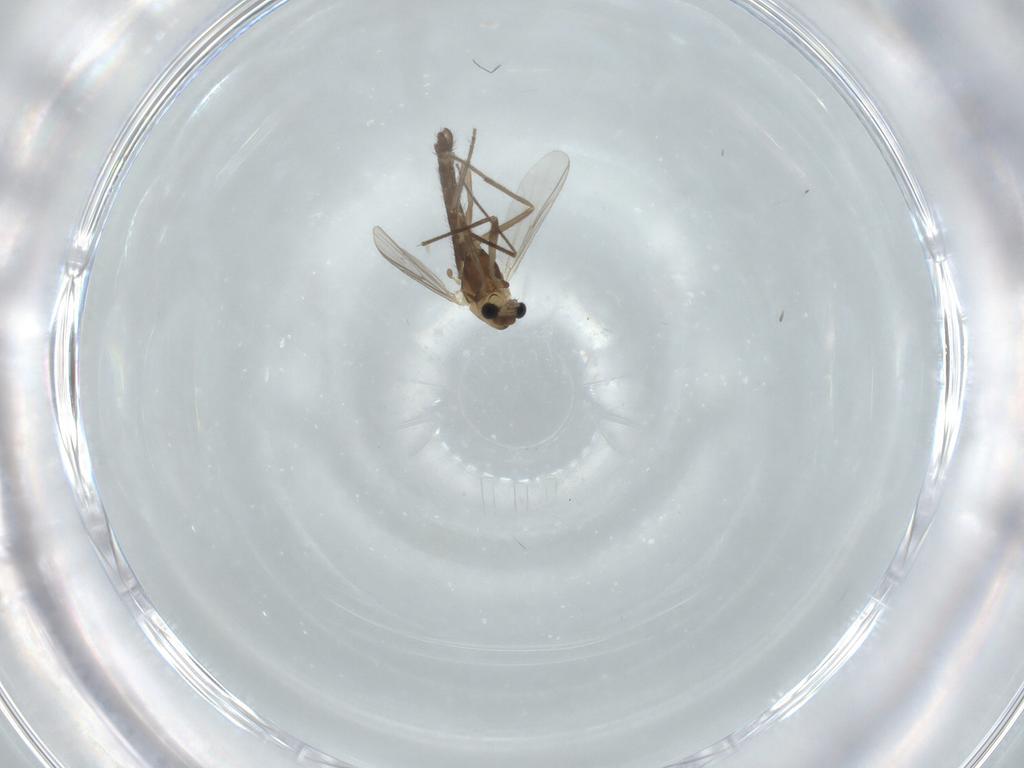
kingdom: Animalia
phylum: Arthropoda
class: Insecta
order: Diptera
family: Chironomidae
